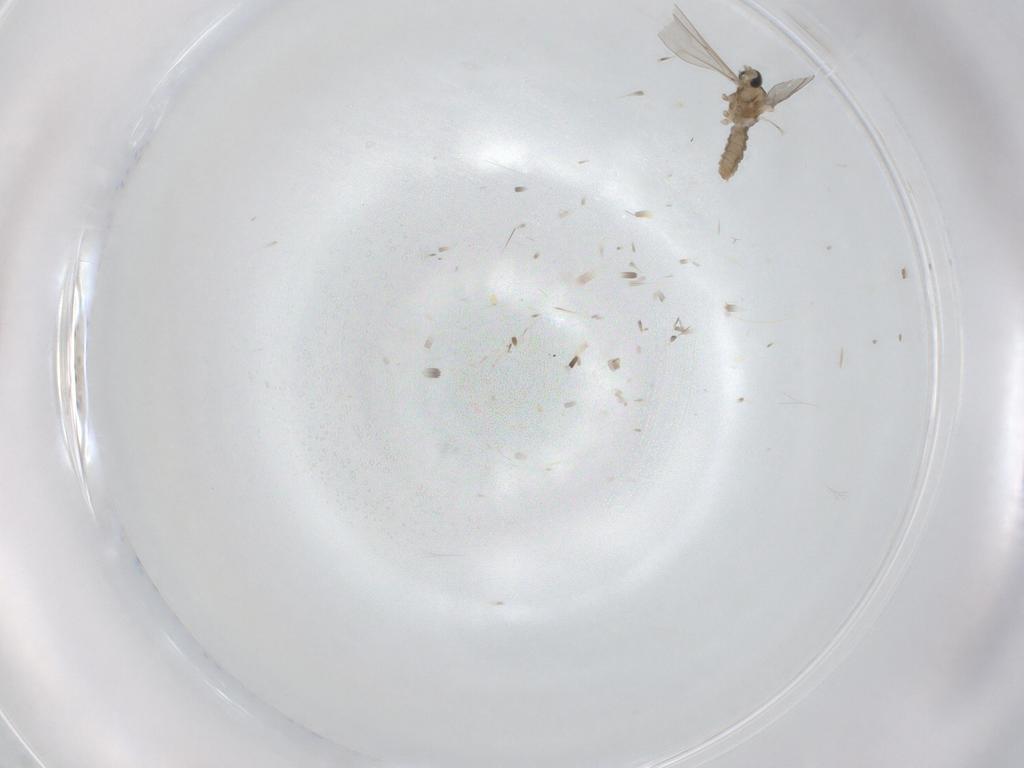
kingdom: Animalia
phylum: Arthropoda
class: Insecta
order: Diptera
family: Cecidomyiidae
